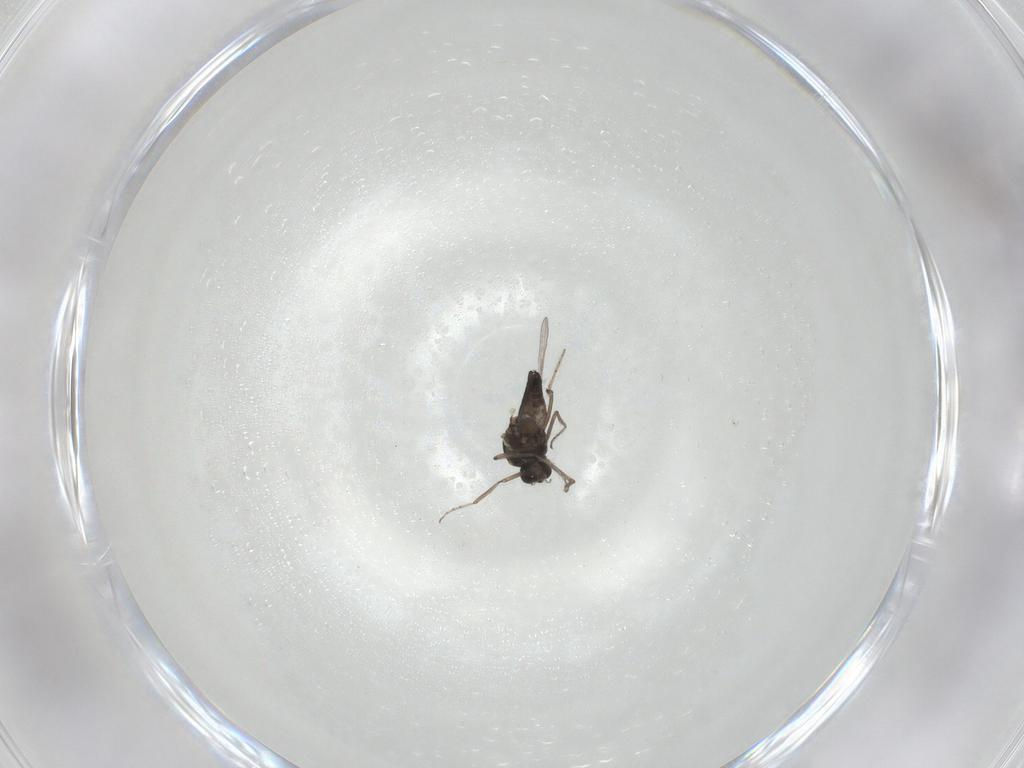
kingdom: Animalia
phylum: Arthropoda
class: Insecta
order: Diptera
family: Ceratopogonidae
